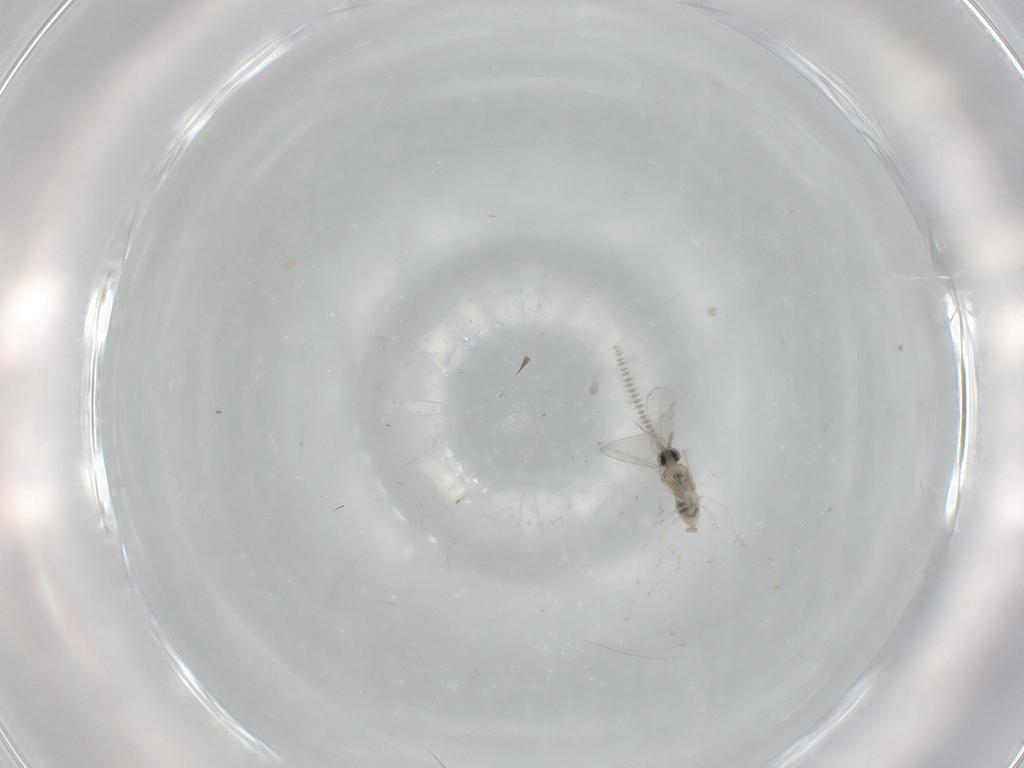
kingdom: Animalia
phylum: Arthropoda
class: Insecta
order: Diptera
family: Cecidomyiidae
